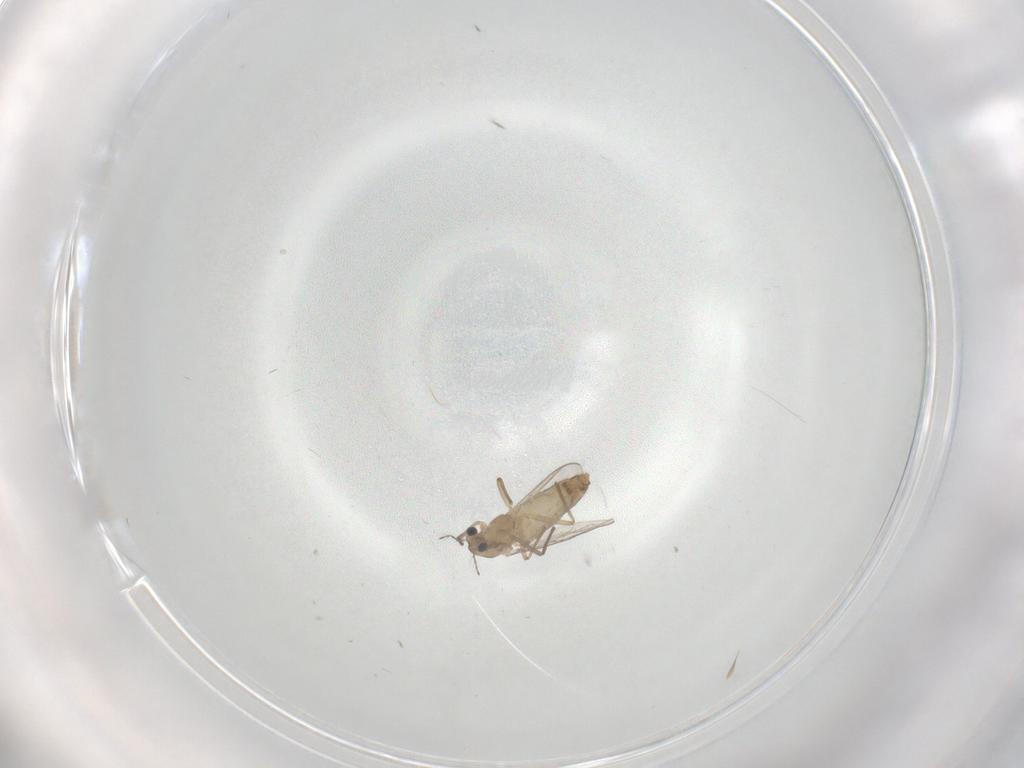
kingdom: Animalia
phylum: Arthropoda
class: Insecta
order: Diptera
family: Chironomidae
